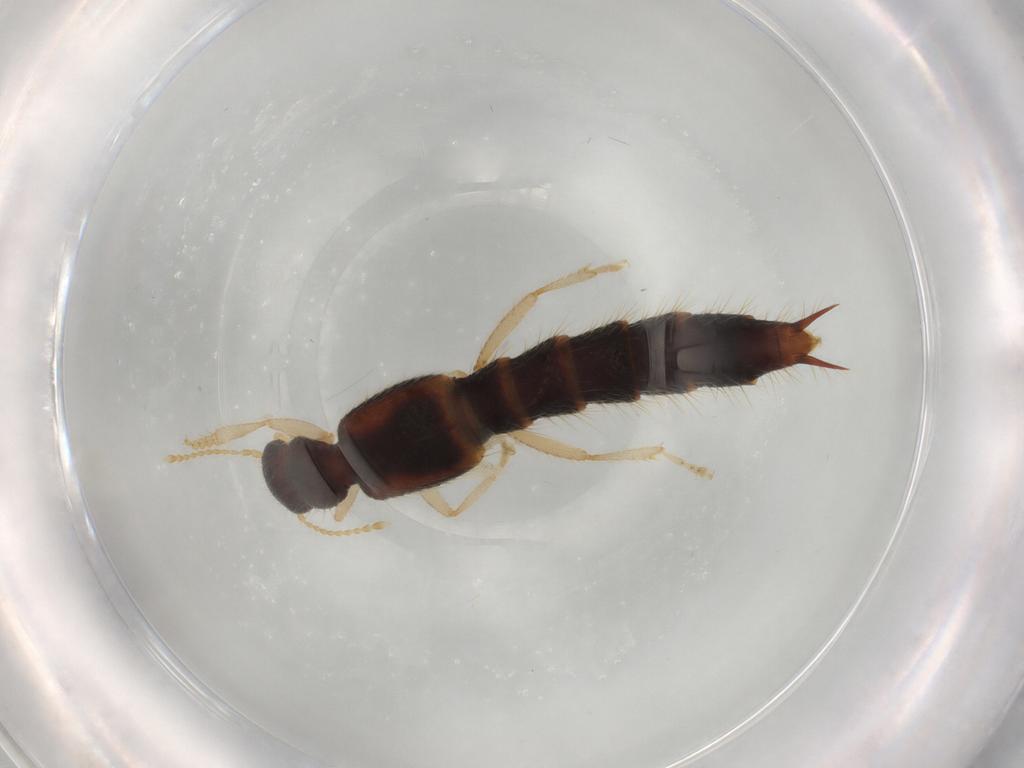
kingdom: Animalia
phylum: Arthropoda
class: Insecta
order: Coleoptera
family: Staphylinidae
